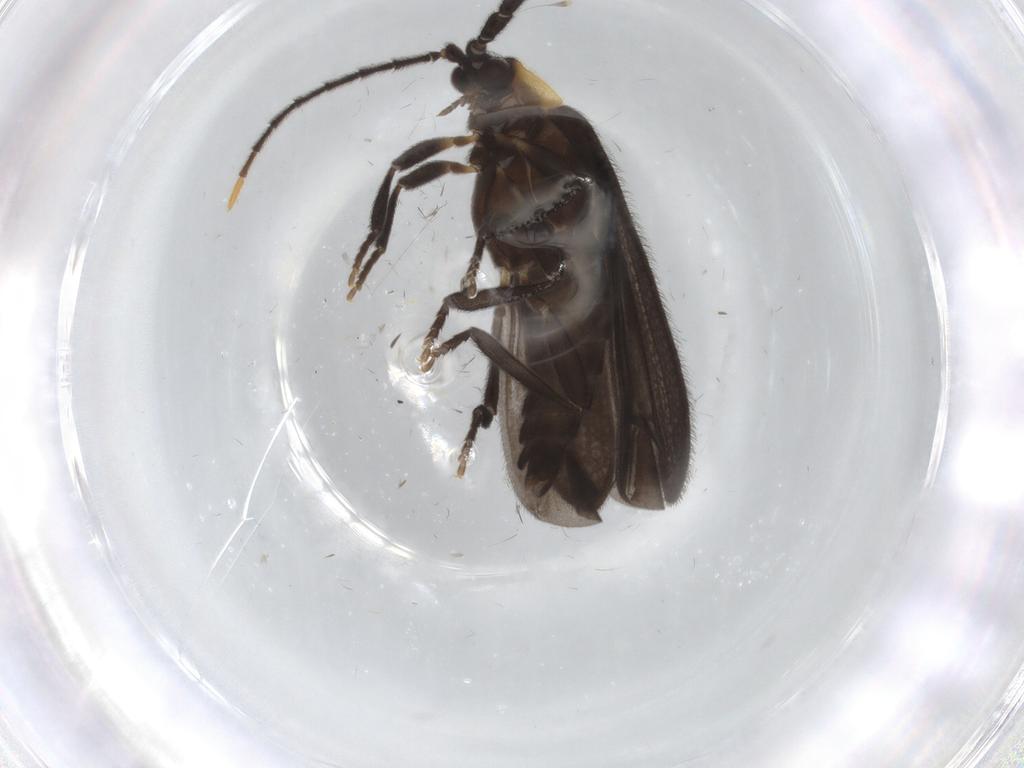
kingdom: Animalia
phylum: Arthropoda
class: Insecta
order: Coleoptera
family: Lycidae
